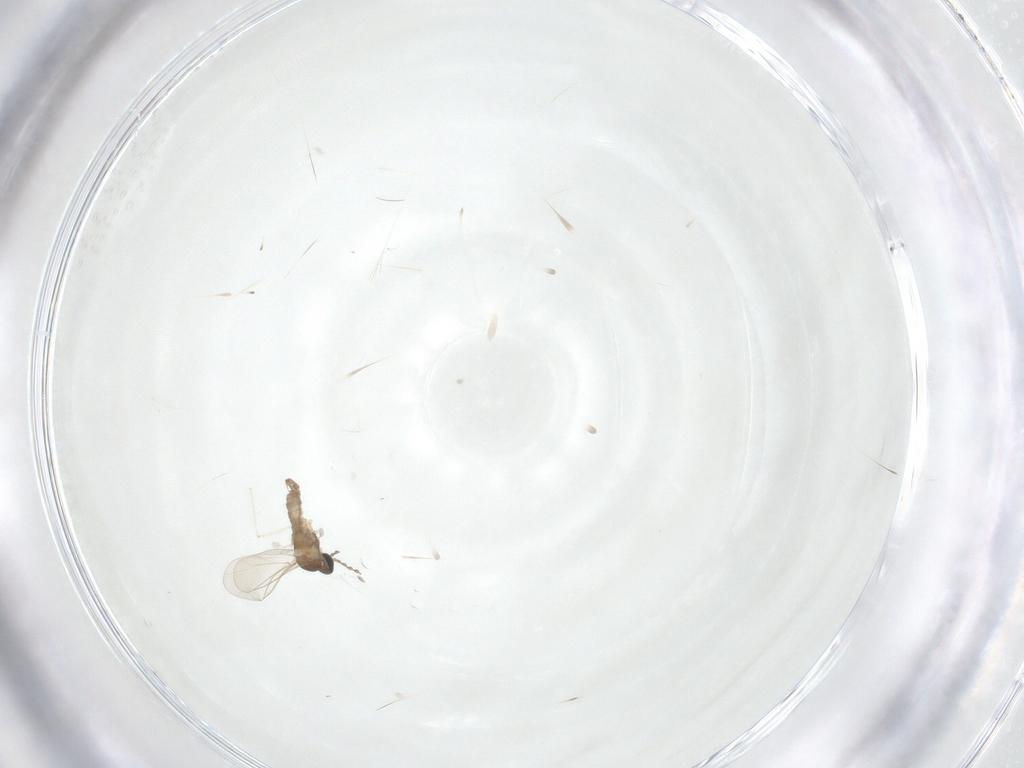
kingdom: Animalia
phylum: Arthropoda
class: Insecta
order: Diptera
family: Cecidomyiidae
